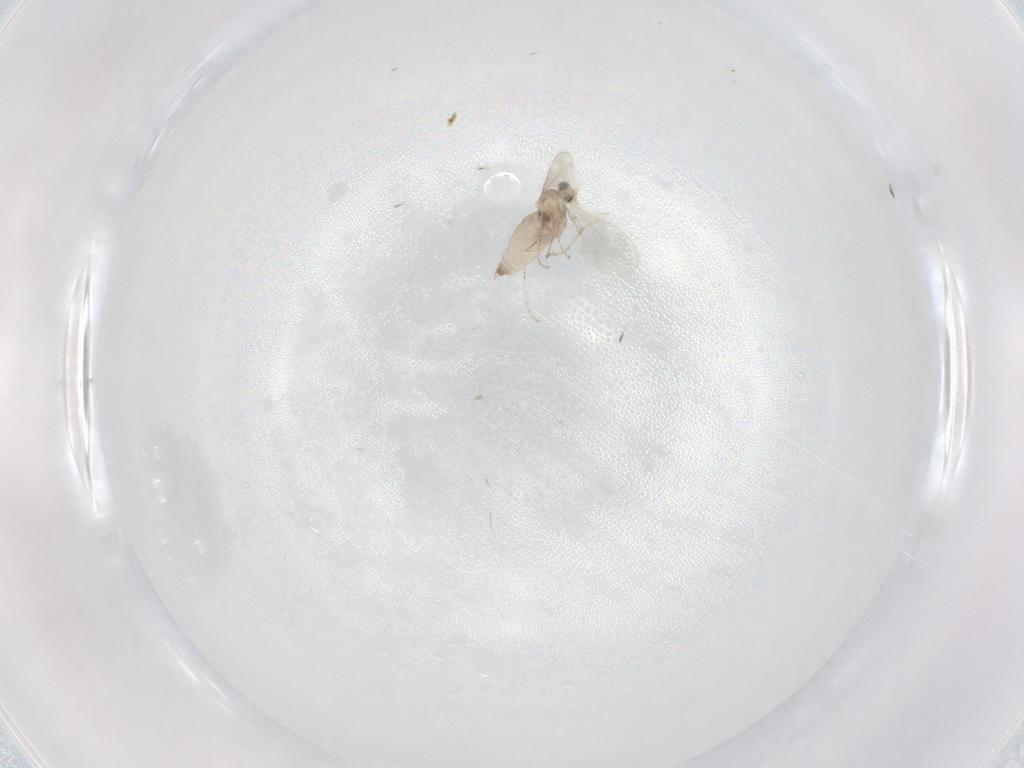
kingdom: Animalia
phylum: Arthropoda
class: Insecta
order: Diptera
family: Cecidomyiidae
